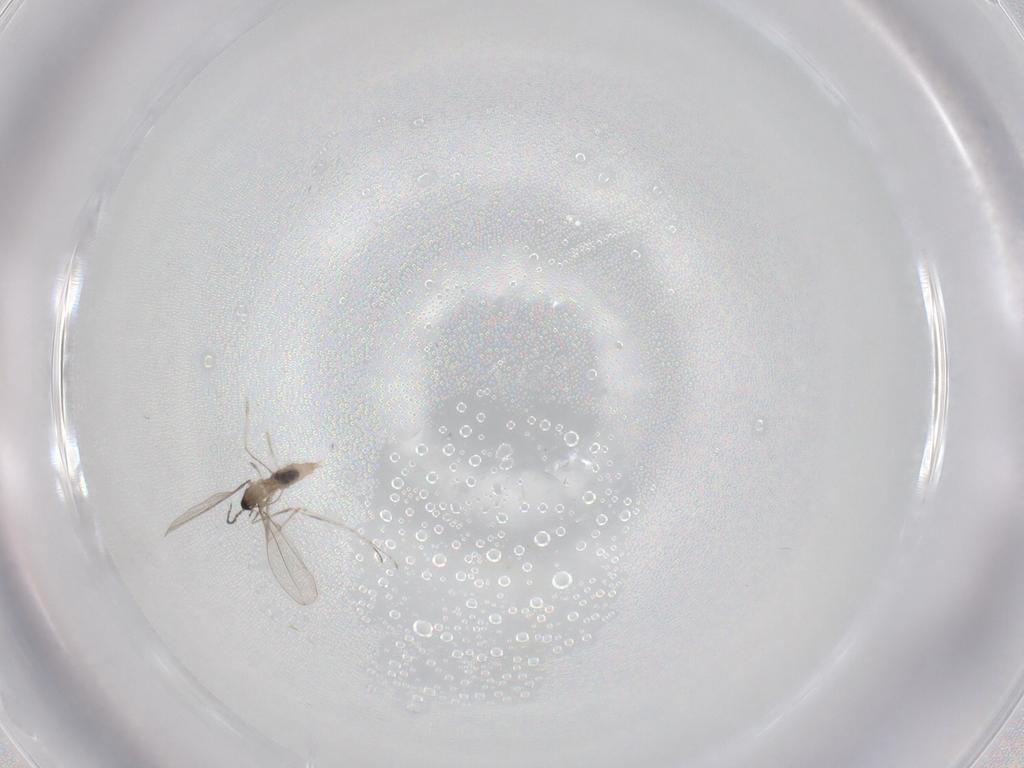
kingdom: Animalia
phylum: Arthropoda
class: Insecta
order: Diptera
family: Cecidomyiidae
